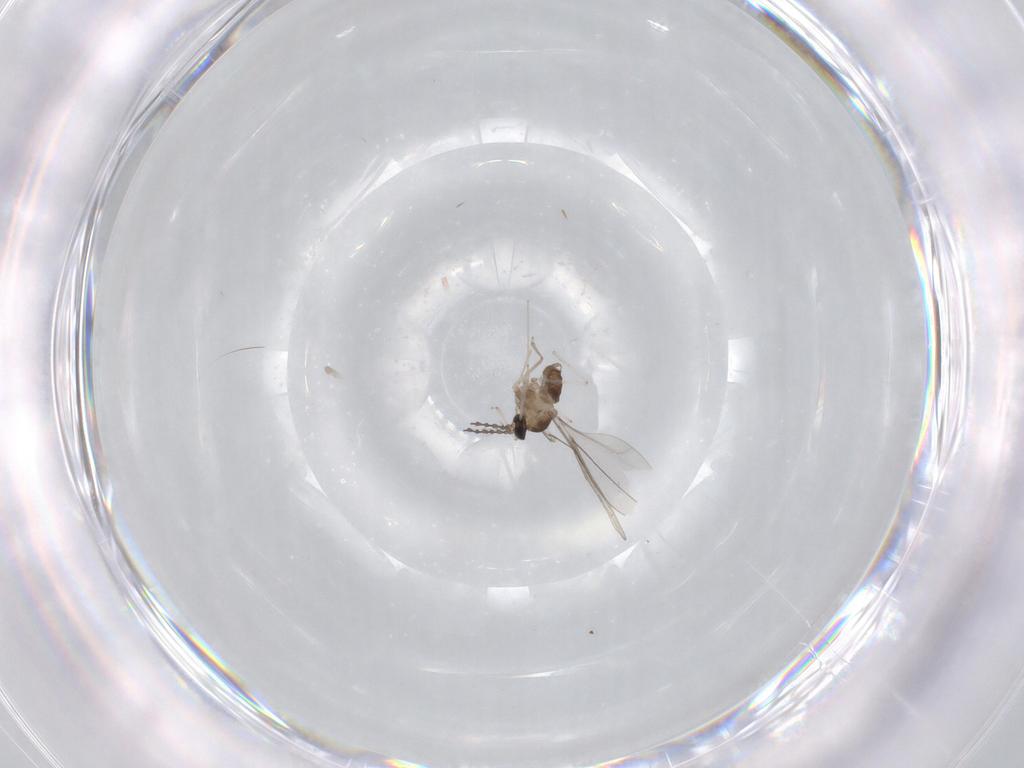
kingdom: Animalia
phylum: Arthropoda
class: Insecta
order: Diptera
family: Cecidomyiidae
